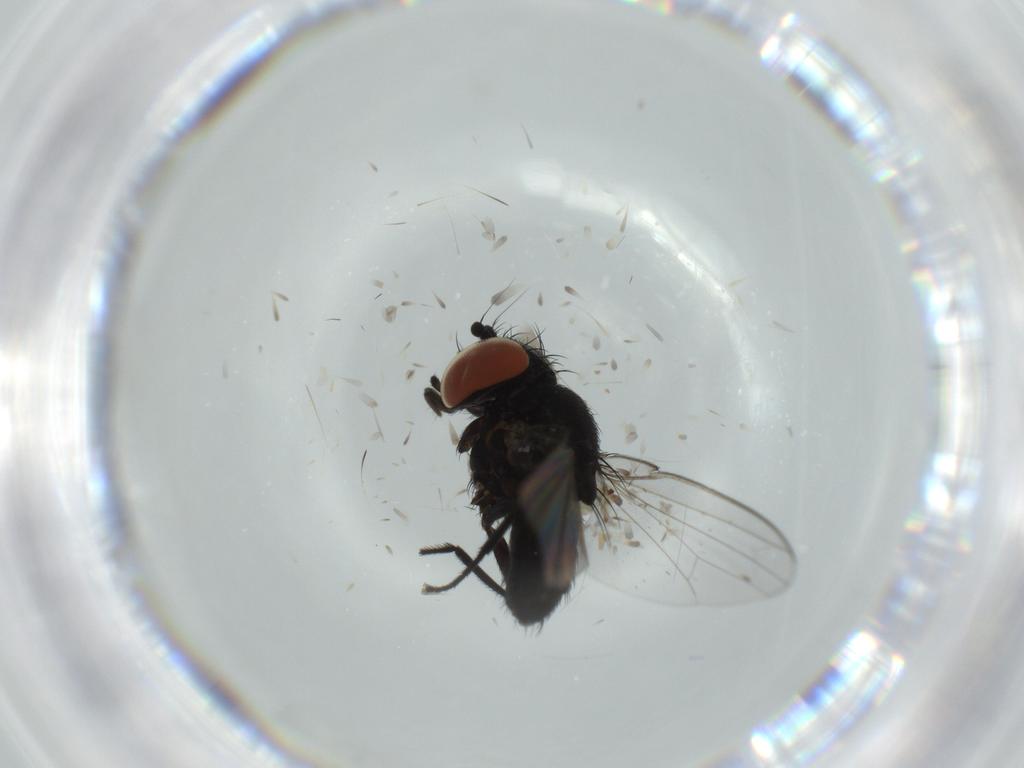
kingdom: Animalia
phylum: Arthropoda
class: Insecta
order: Diptera
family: Milichiidae
